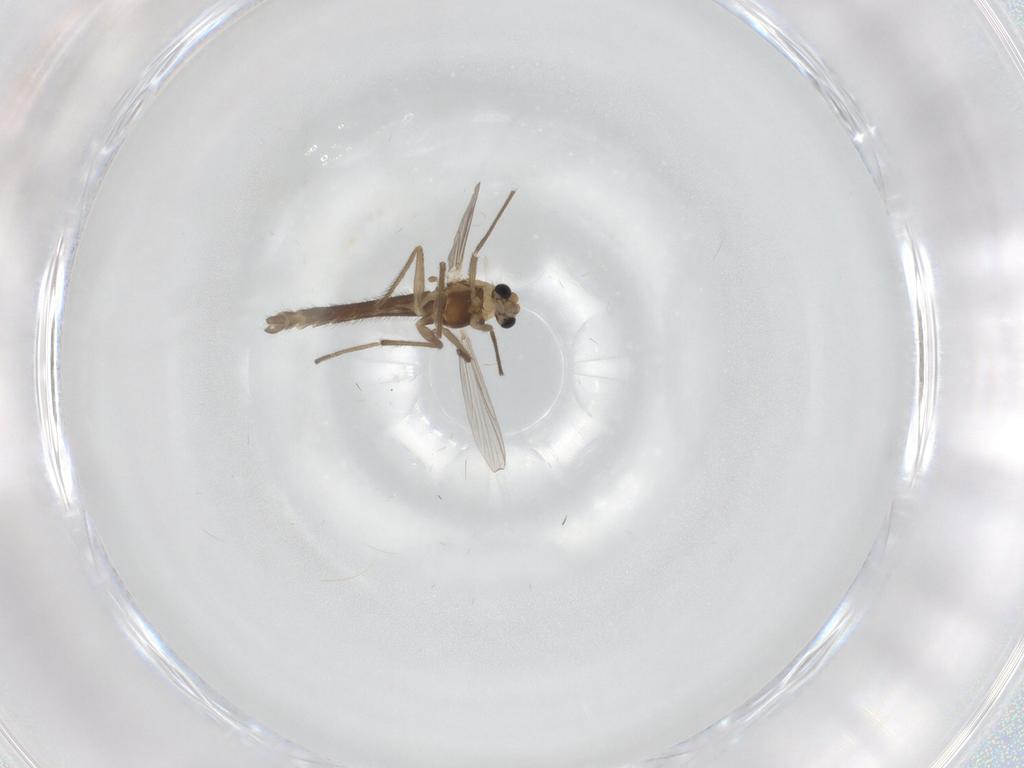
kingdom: Animalia
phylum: Arthropoda
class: Insecta
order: Diptera
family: Chironomidae
